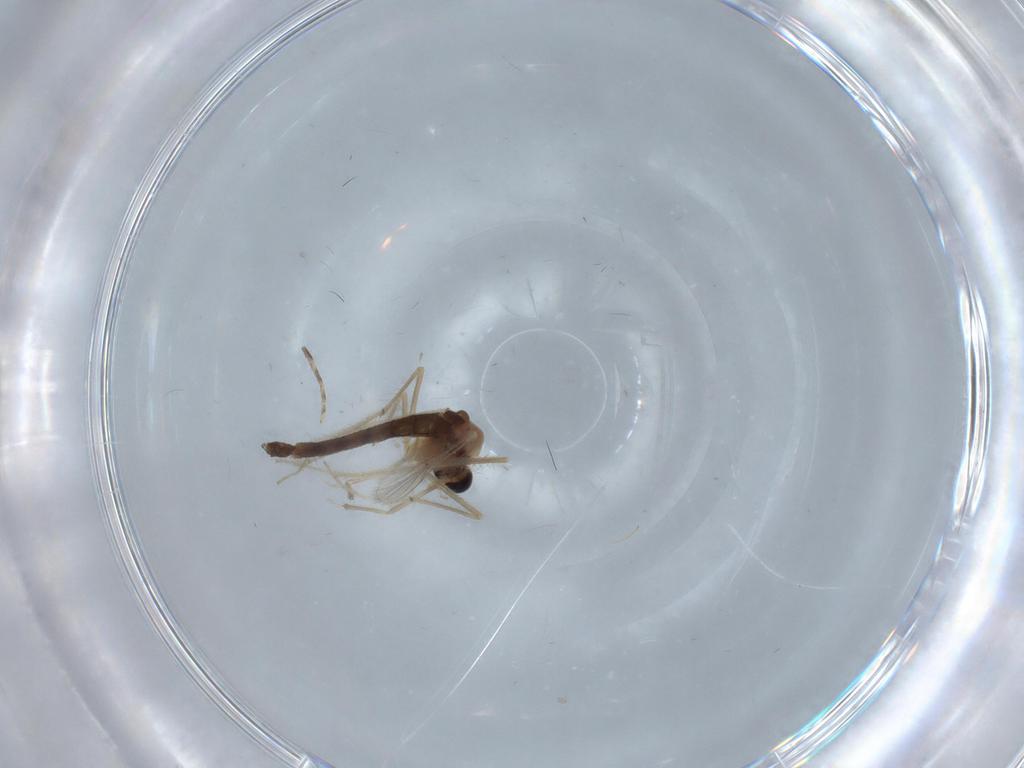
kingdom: Animalia
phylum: Arthropoda
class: Insecta
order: Diptera
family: Chironomidae
